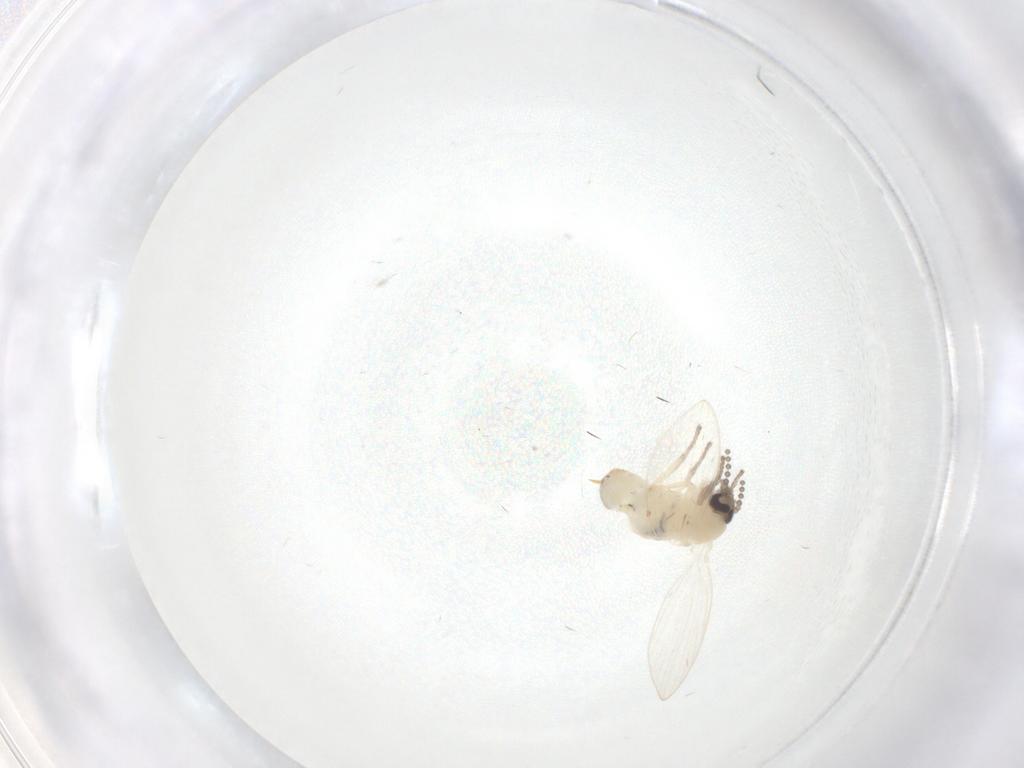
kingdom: Animalia
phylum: Arthropoda
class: Insecta
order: Diptera
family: Psychodidae
